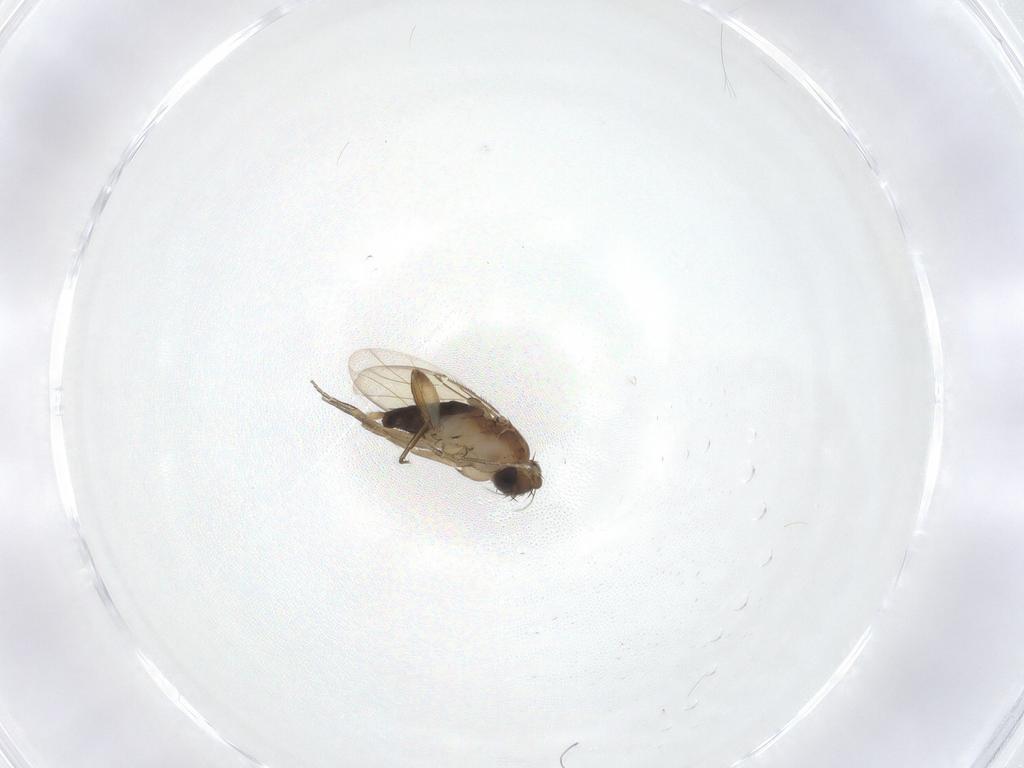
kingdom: Animalia
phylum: Arthropoda
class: Insecta
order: Diptera
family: Phoridae
